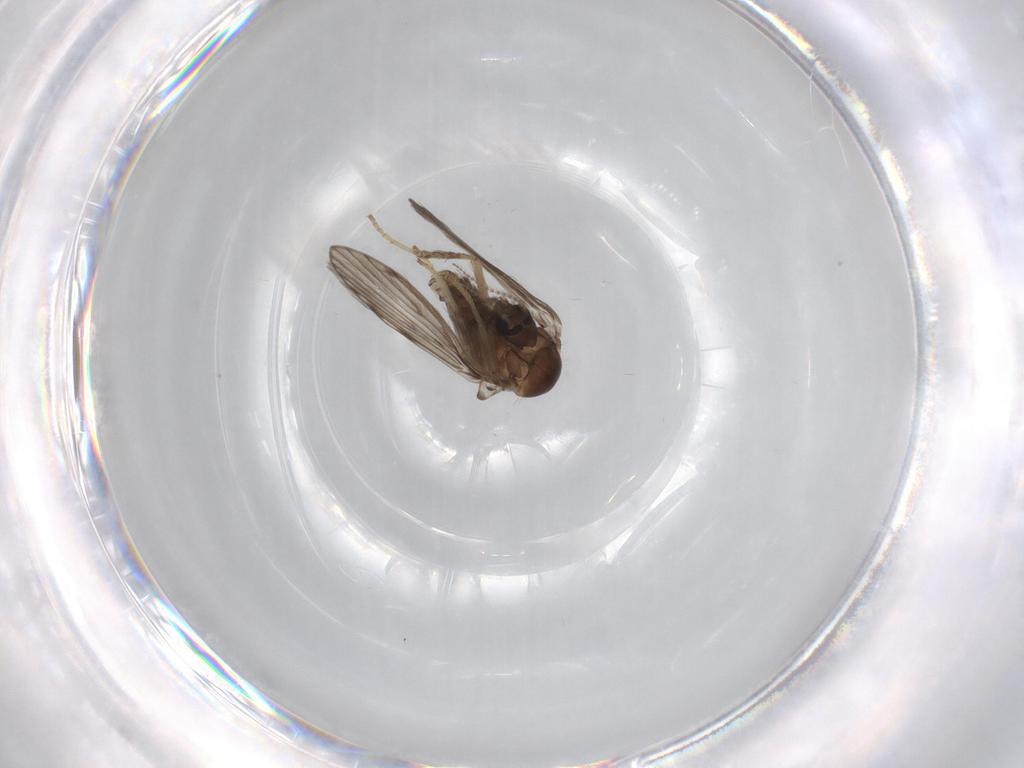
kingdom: Animalia
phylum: Arthropoda
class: Insecta
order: Diptera
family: Psychodidae
